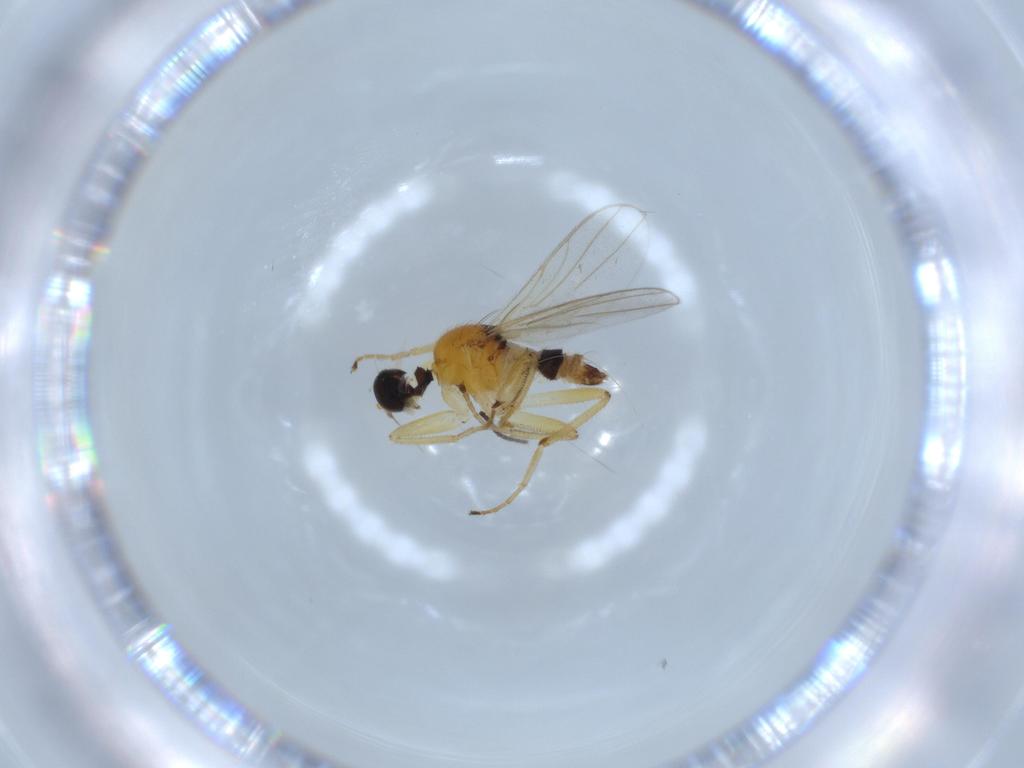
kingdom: Animalia
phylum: Arthropoda
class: Insecta
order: Diptera
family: Hybotidae
